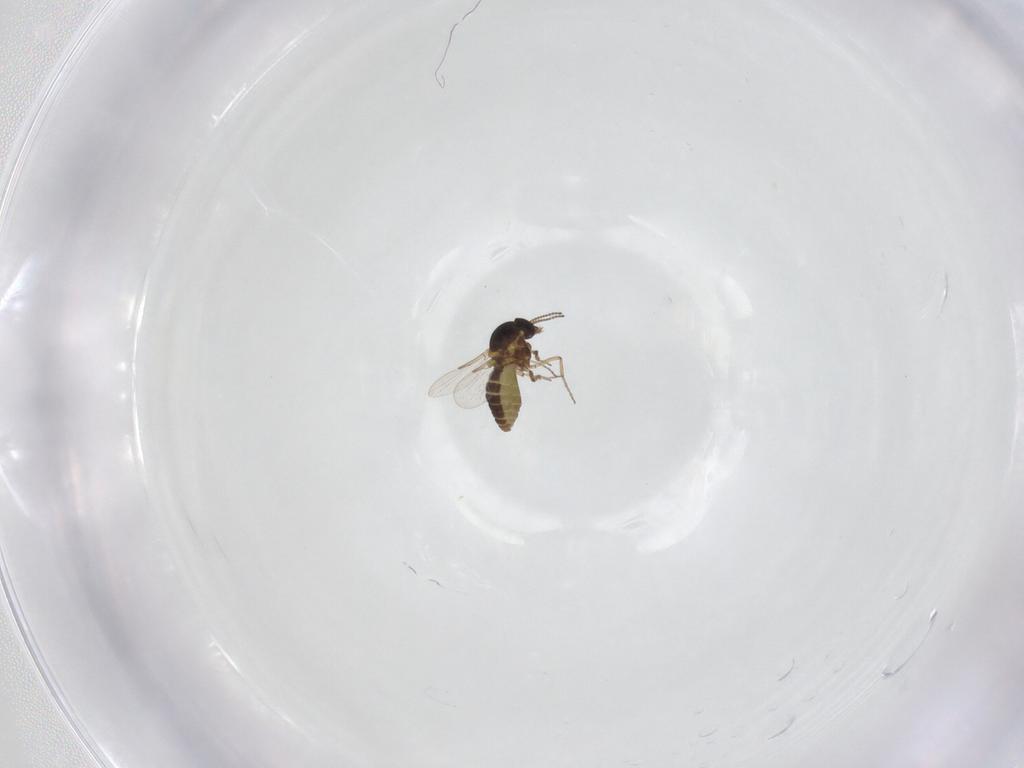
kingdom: Animalia
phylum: Arthropoda
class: Insecta
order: Diptera
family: Ceratopogonidae
